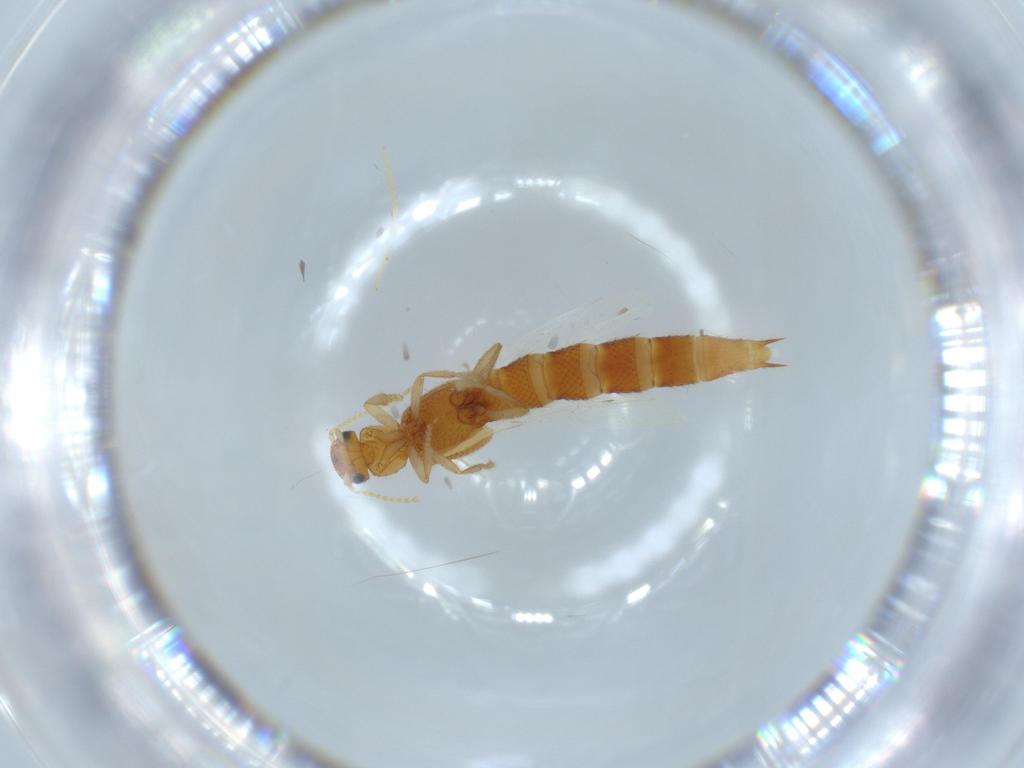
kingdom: Animalia
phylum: Arthropoda
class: Insecta
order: Coleoptera
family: Staphylinidae
